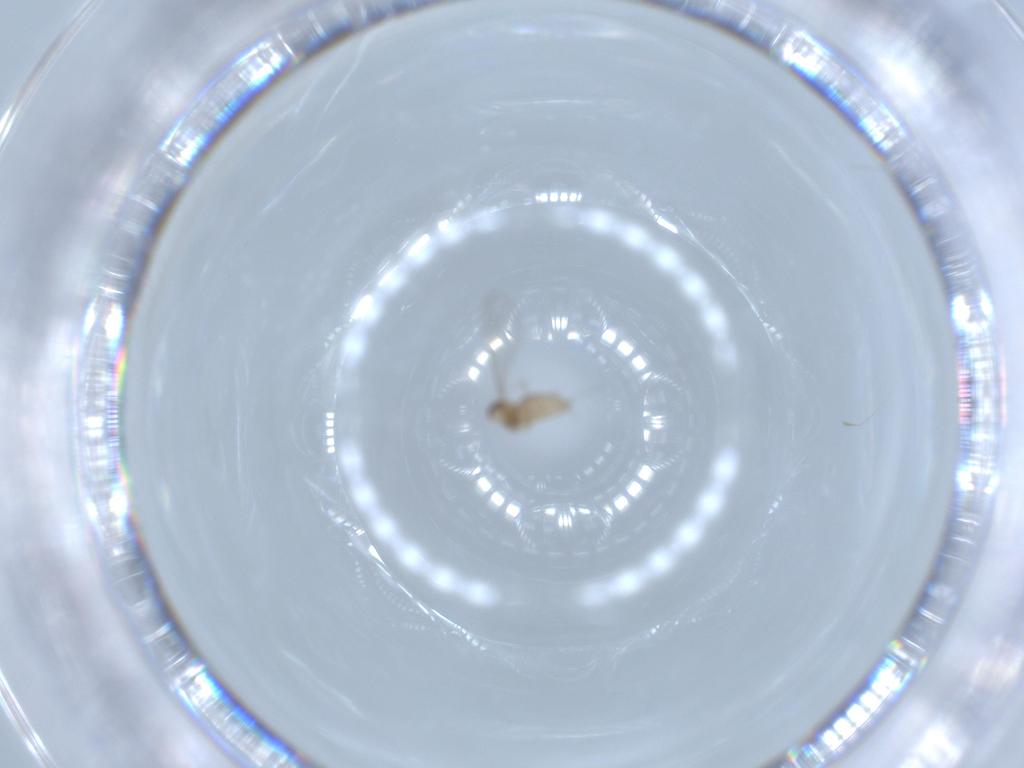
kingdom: Animalia
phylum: Arthropoda
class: Insecta
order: Diptera
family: Cecidomyiidae
